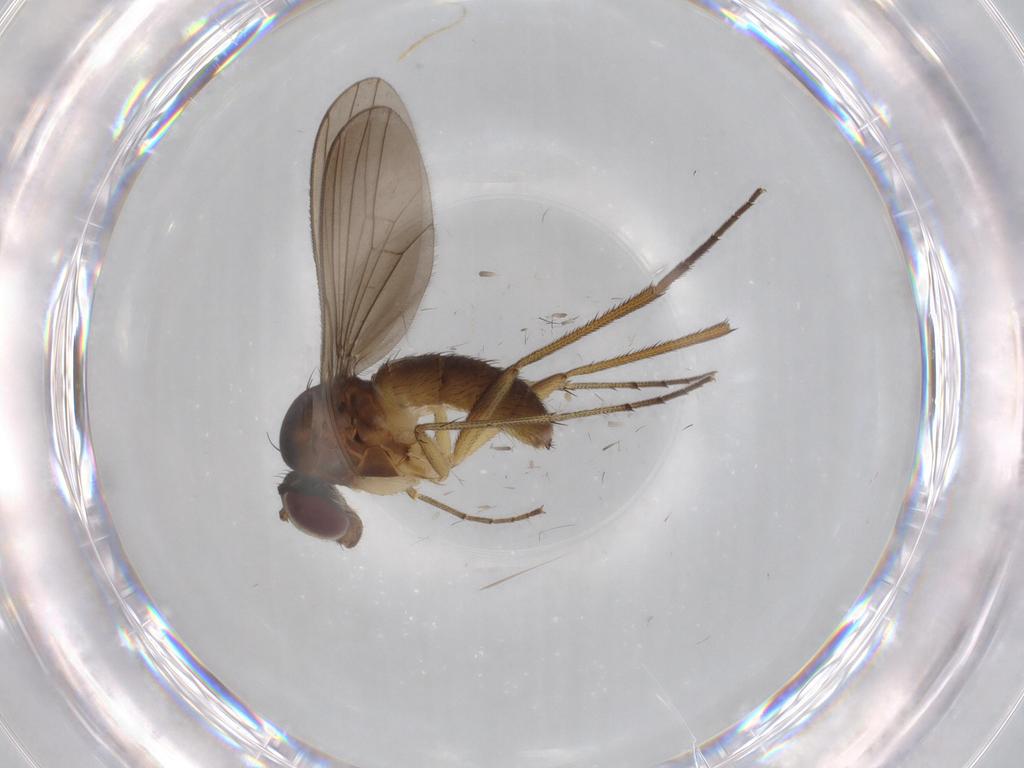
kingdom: Animalia
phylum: Arthropoda
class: Insecta
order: Diptera
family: Dolichopodidae
